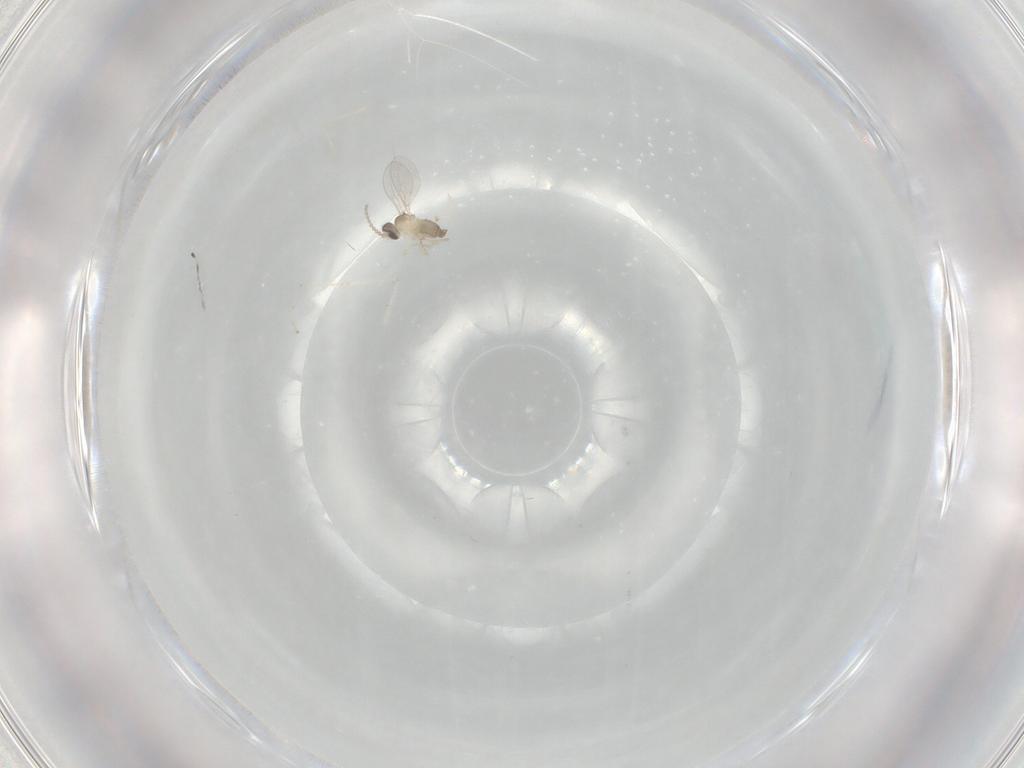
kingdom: Animalia
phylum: Arthropoda
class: Insecta
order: Diptera
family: Cecidomyiidae
